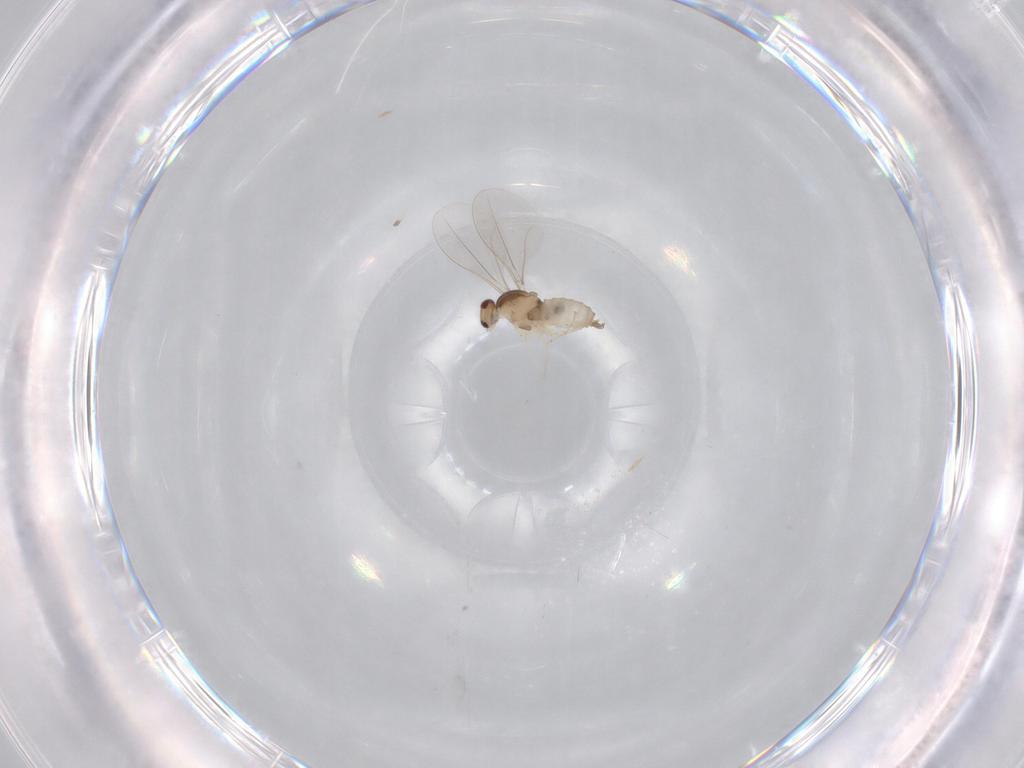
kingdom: Animalia
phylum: Arthropoda
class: Insecta
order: Diptera
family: Cecidomyiidae
